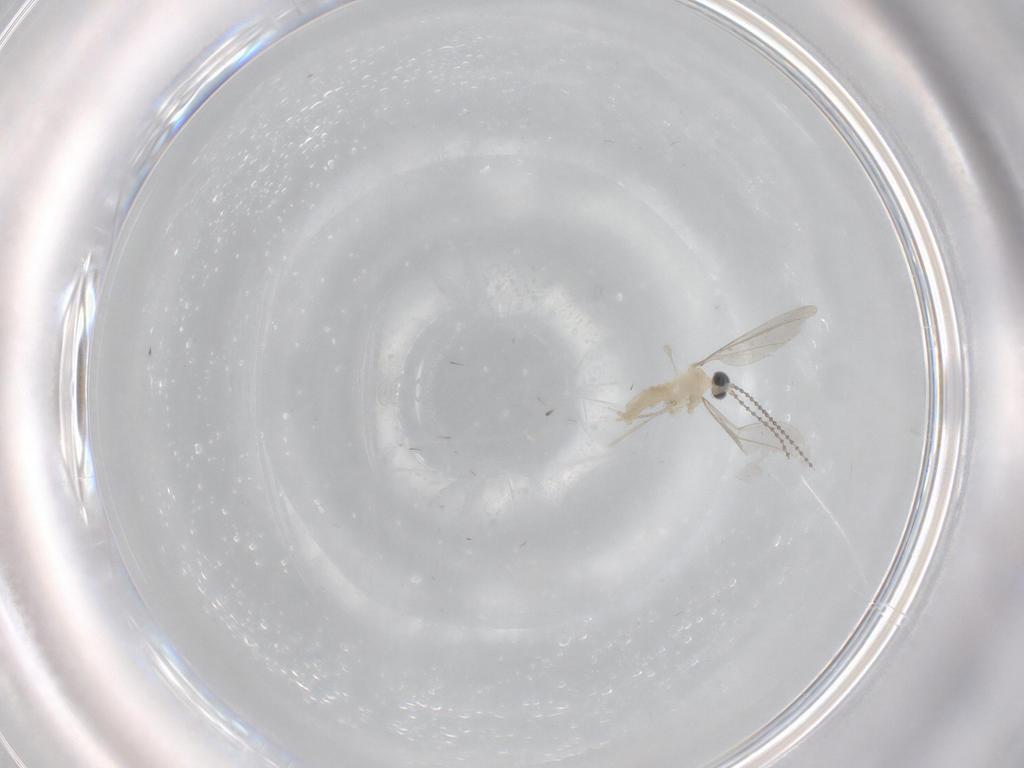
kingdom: Animalia
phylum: Arthropoda
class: Insecta
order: Diptera
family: Cecidomyiidae
